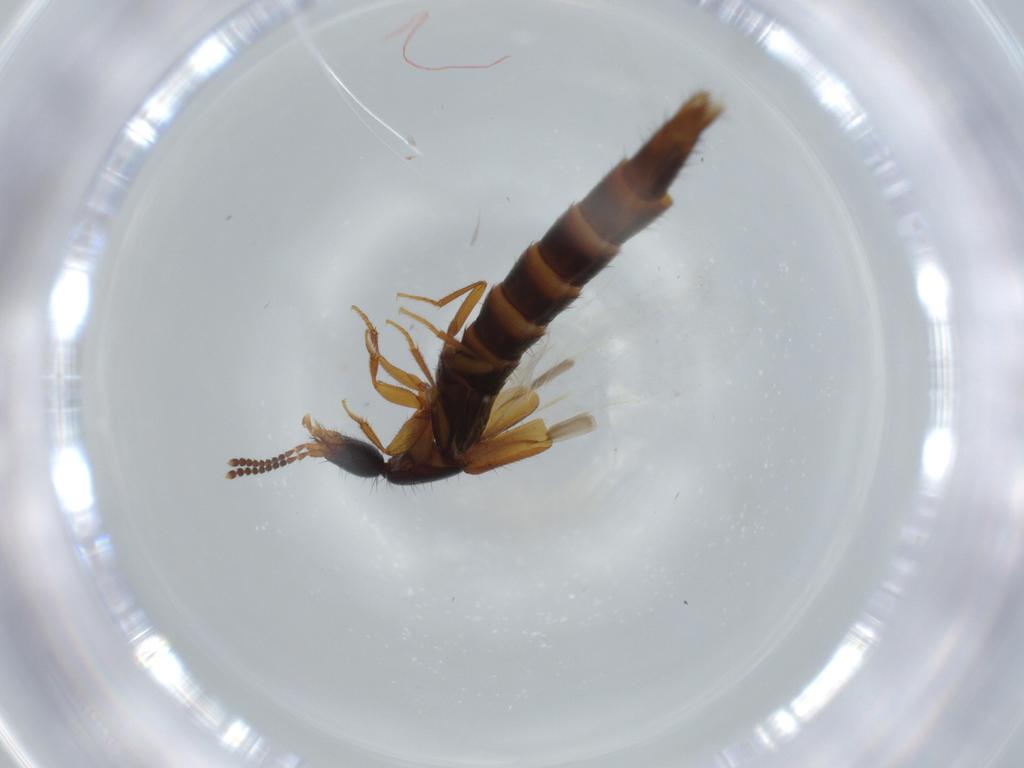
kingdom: Animalia
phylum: Arthropoda
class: Insecta
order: Coleoptera
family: Staphylinidae
